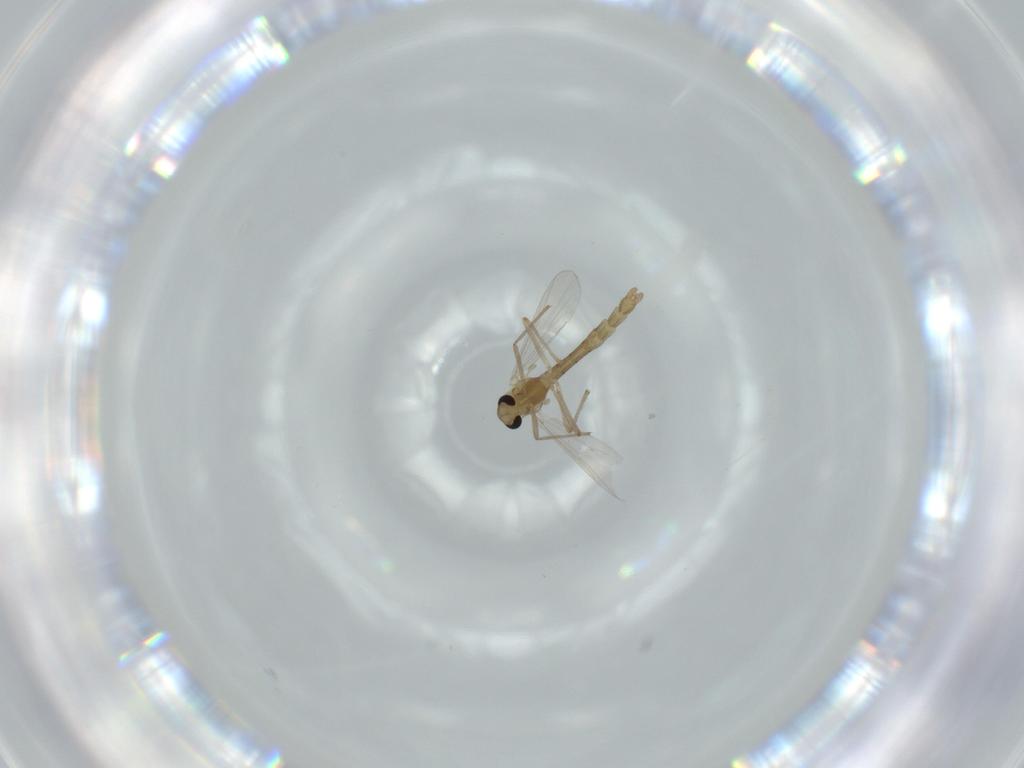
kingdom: Animalia
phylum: Arthropoda
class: Insecta
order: Diptera
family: Chironomidae
